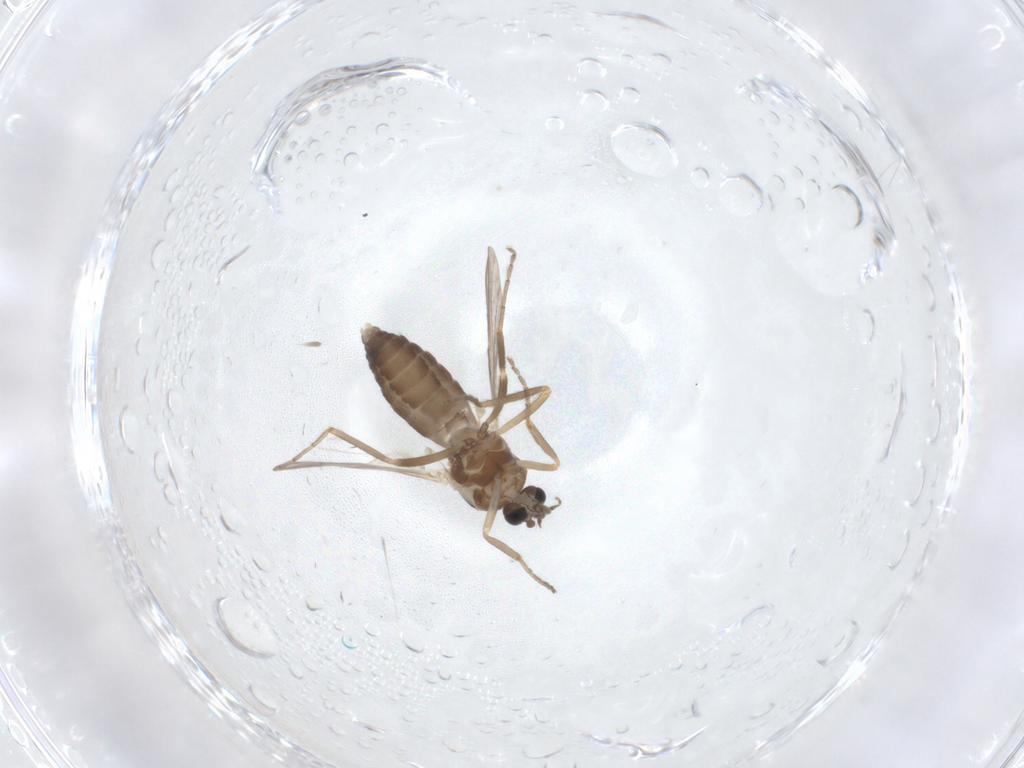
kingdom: Animalia
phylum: Arthropoda
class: Insecta
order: Diptera
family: Ceratopogonidae
